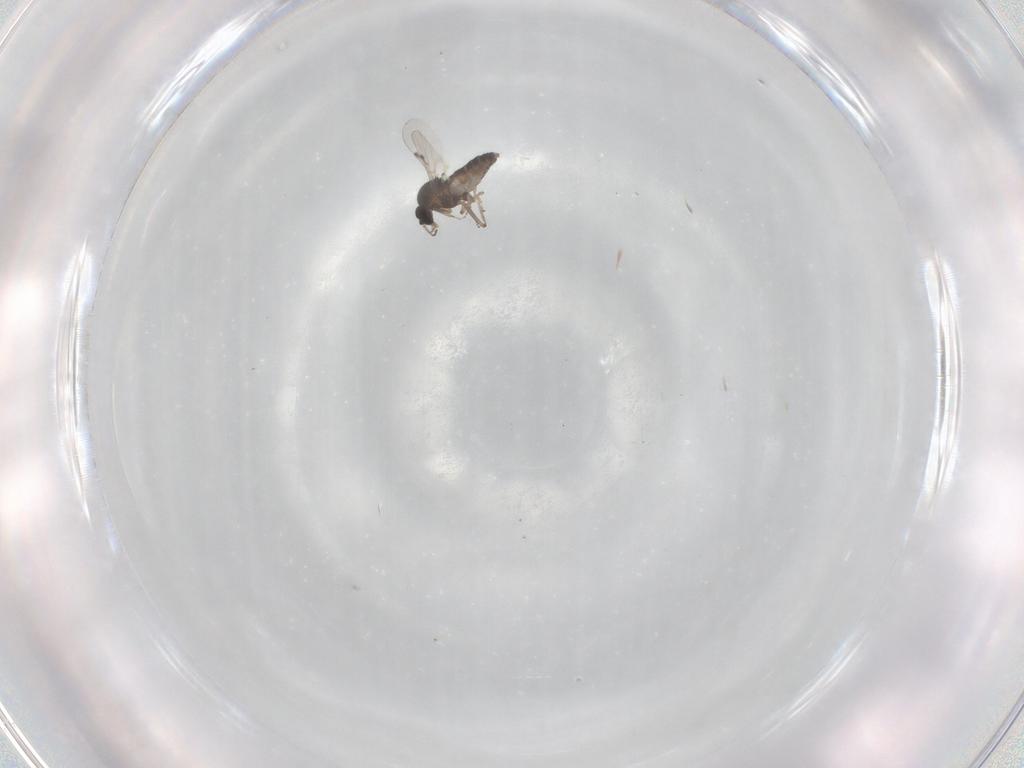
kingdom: Animalia
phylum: Arthropoda
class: Insecta
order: Diptera
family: Ceratopogonidae
